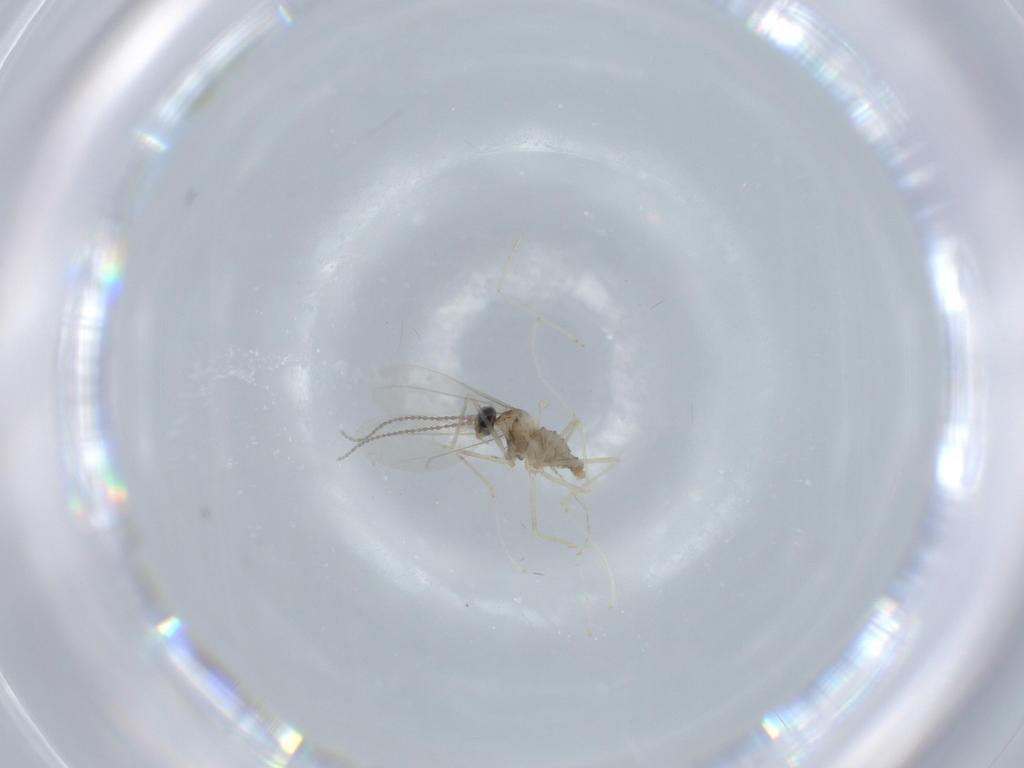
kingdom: Animalia
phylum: Arthropoda
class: Insecta
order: Diptera
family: Cecidomyiidae
